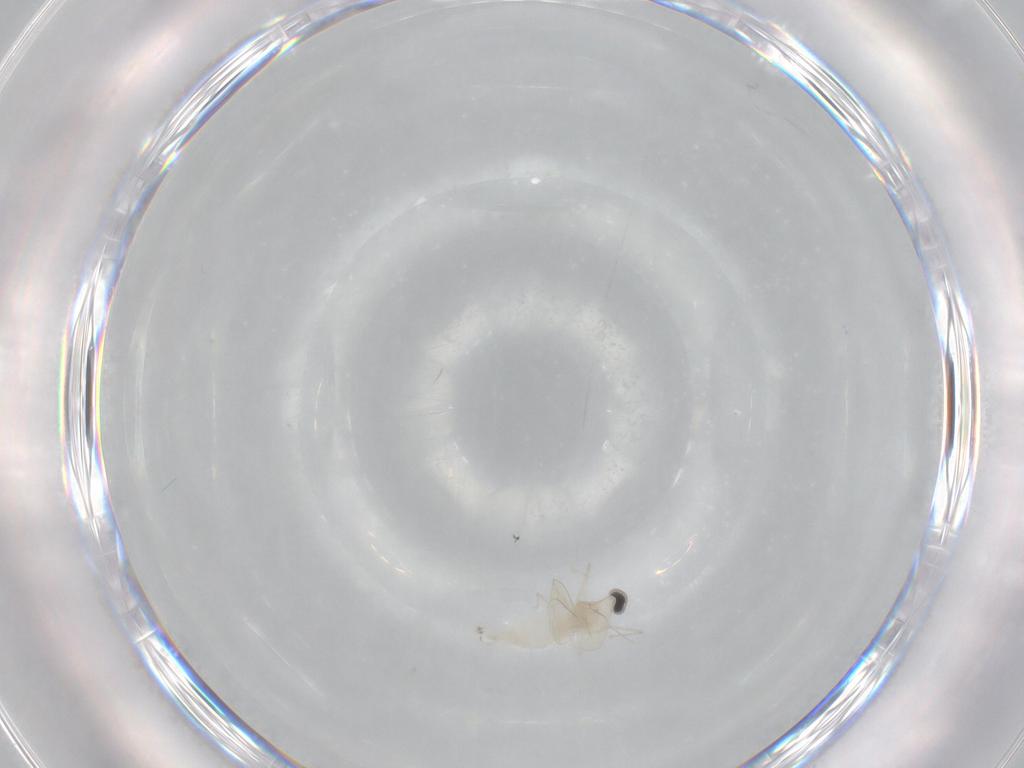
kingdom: Animalia
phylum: Arthropoda
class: Insecta
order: Diptera
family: Cecidomyiidae
